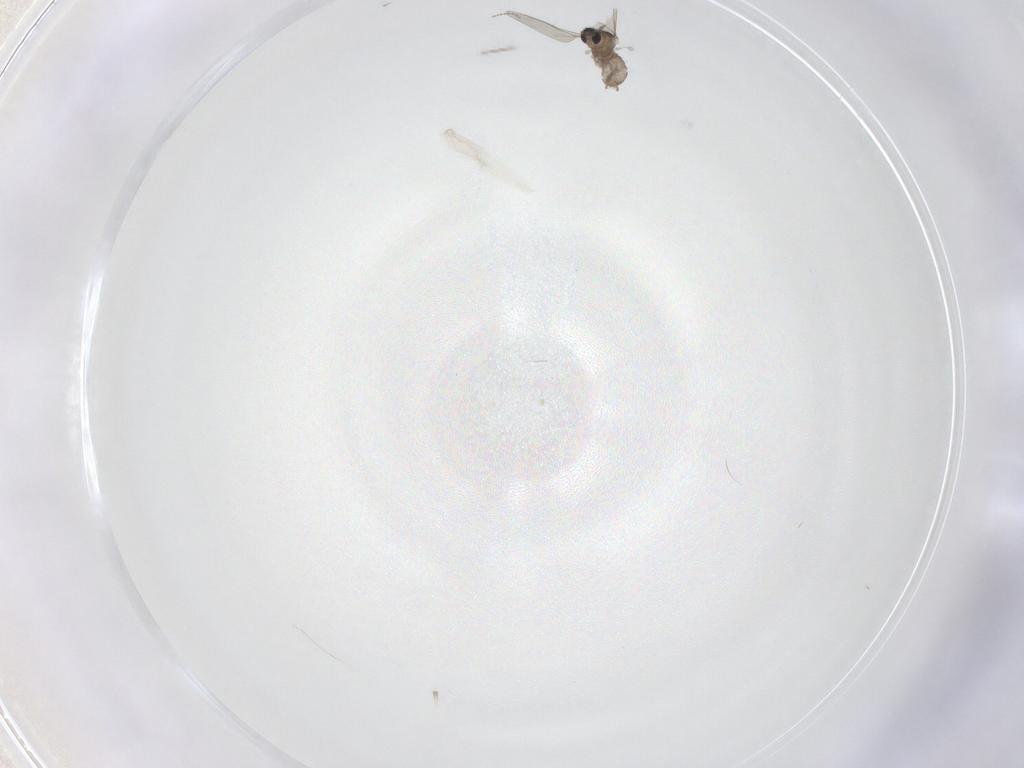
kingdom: Animalia
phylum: Arthropoda
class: Insecta
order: Diptera
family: Cecidomyiidae
